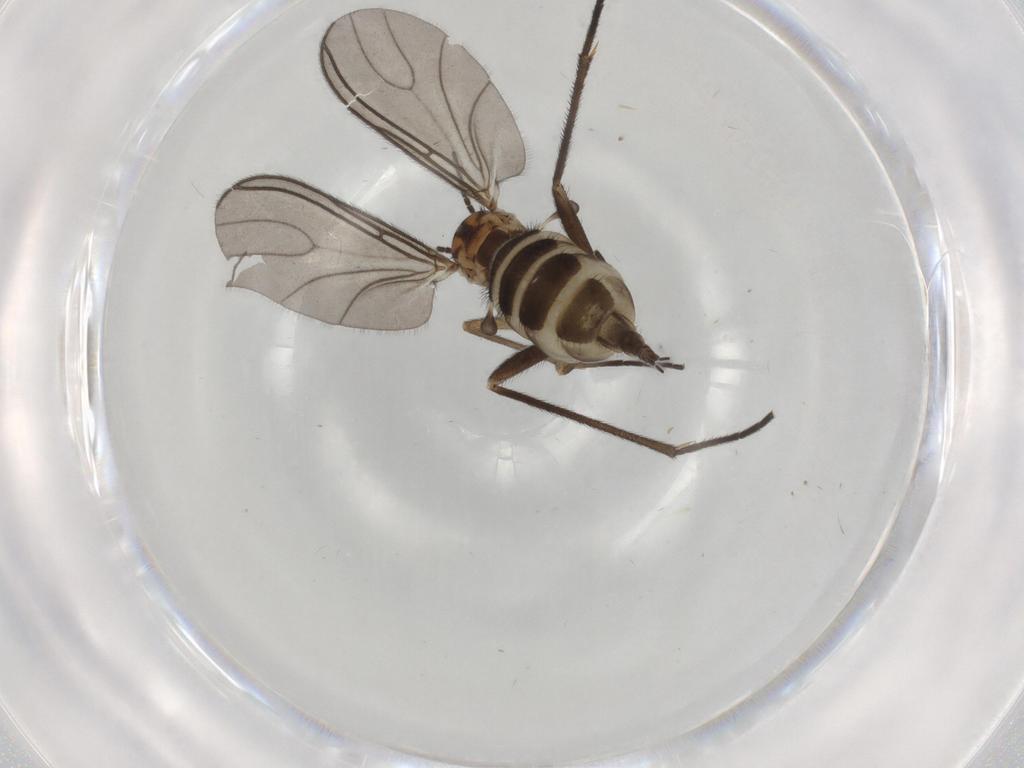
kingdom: Animalia
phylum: Arthropoda
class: Insecta
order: Diptera
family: Sciaridae
